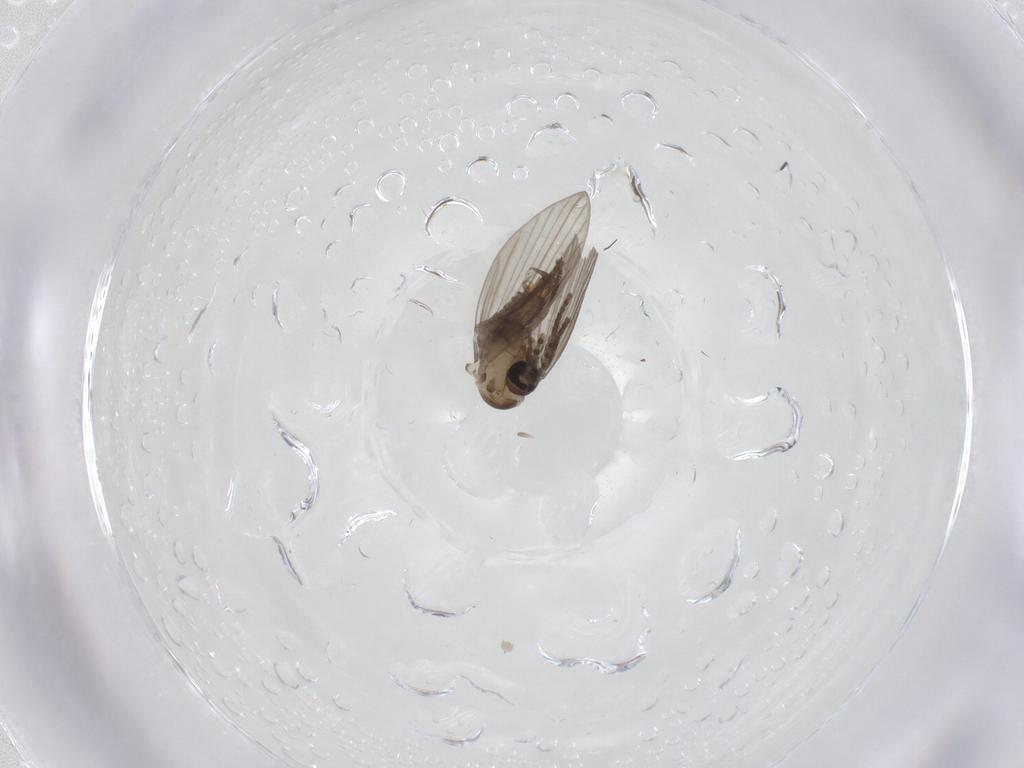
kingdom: Animalia
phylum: Arthropoda
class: Insecta
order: Diptera
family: Psychodidae
